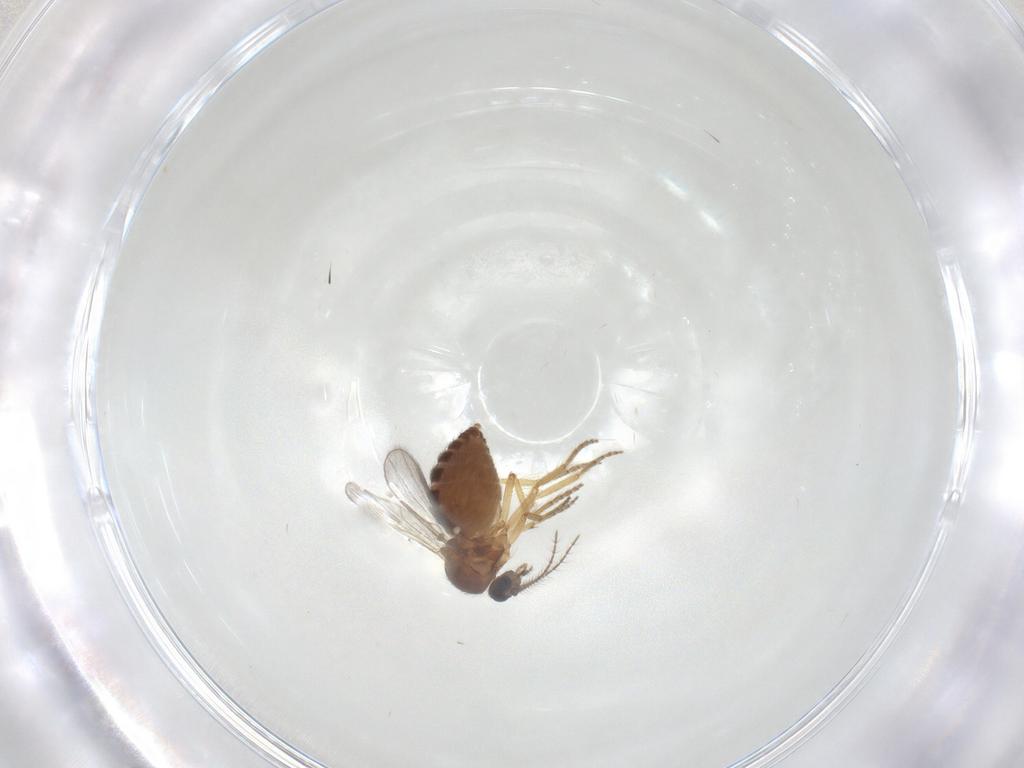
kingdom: Animalia
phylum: Arthropoda
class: Insecta
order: Diptera
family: Ceratopogonidae
